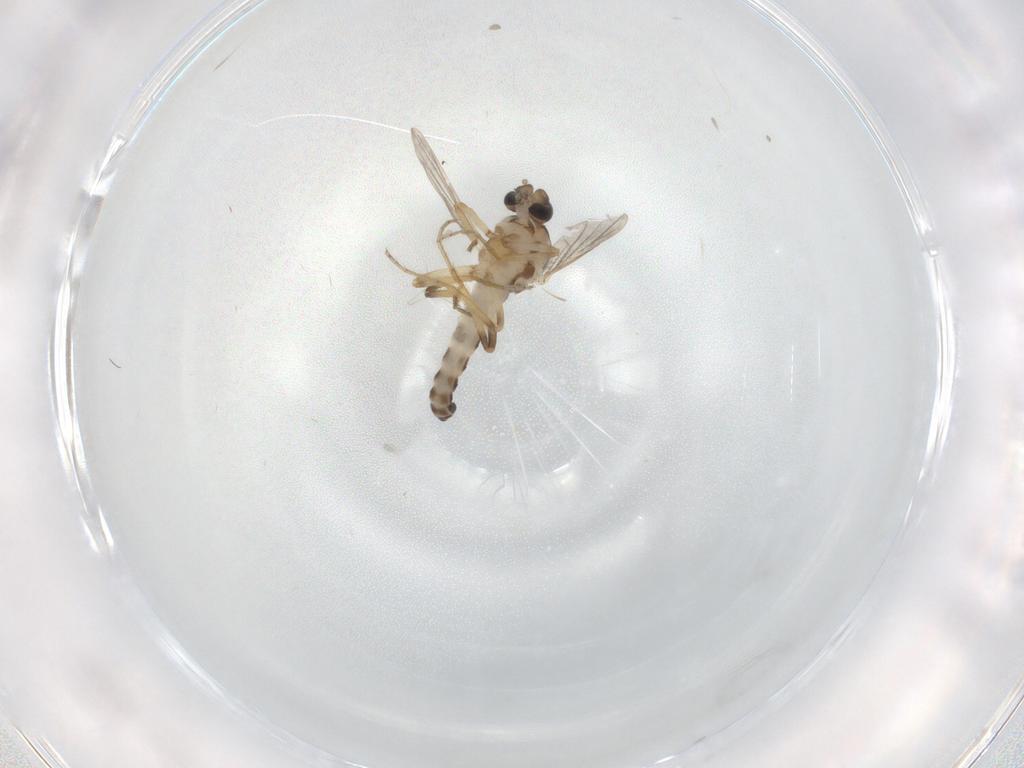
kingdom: Animalia
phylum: Arthropoda
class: Insecta
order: Diptera
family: Ceratopogonidae
